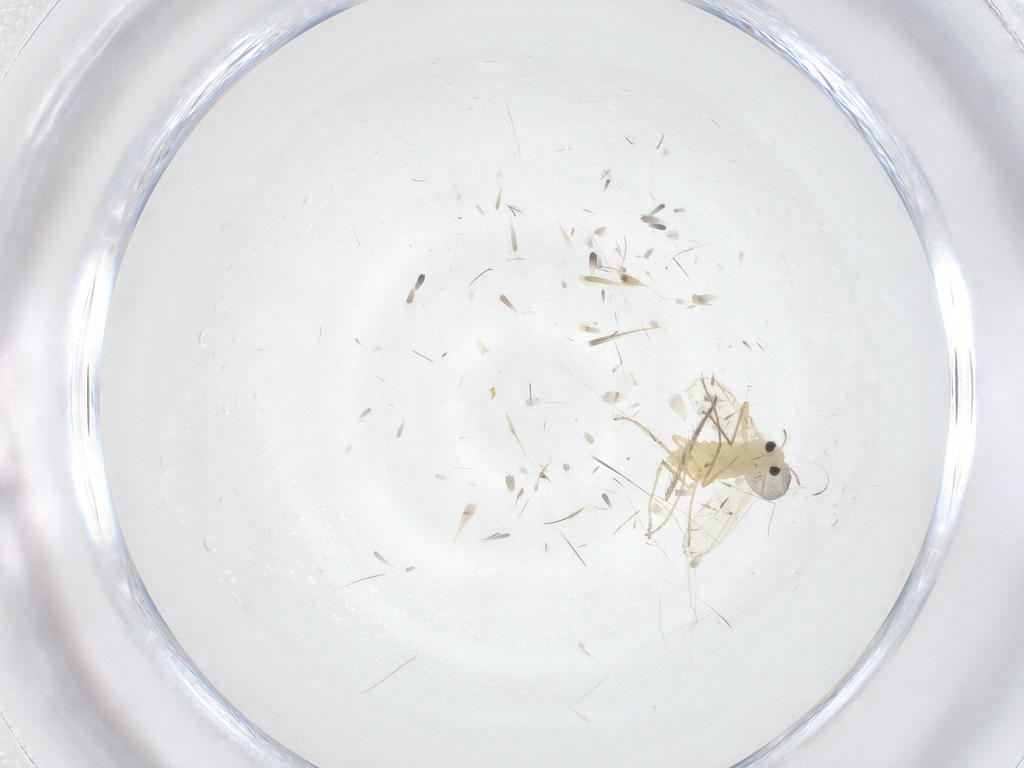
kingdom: Animalia
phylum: Arthropoda
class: Insecta
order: Diptera
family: Chironomidae
